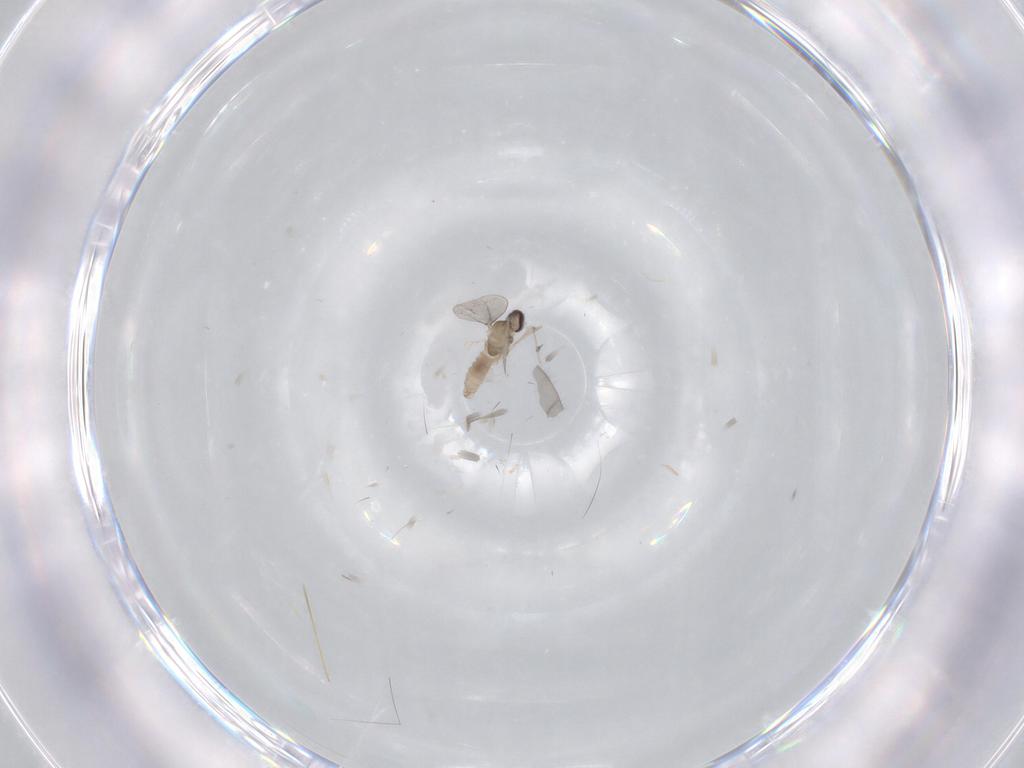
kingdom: Animalia
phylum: Arthropoda
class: Insecta
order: Diptera
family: Cecidomyiidae
